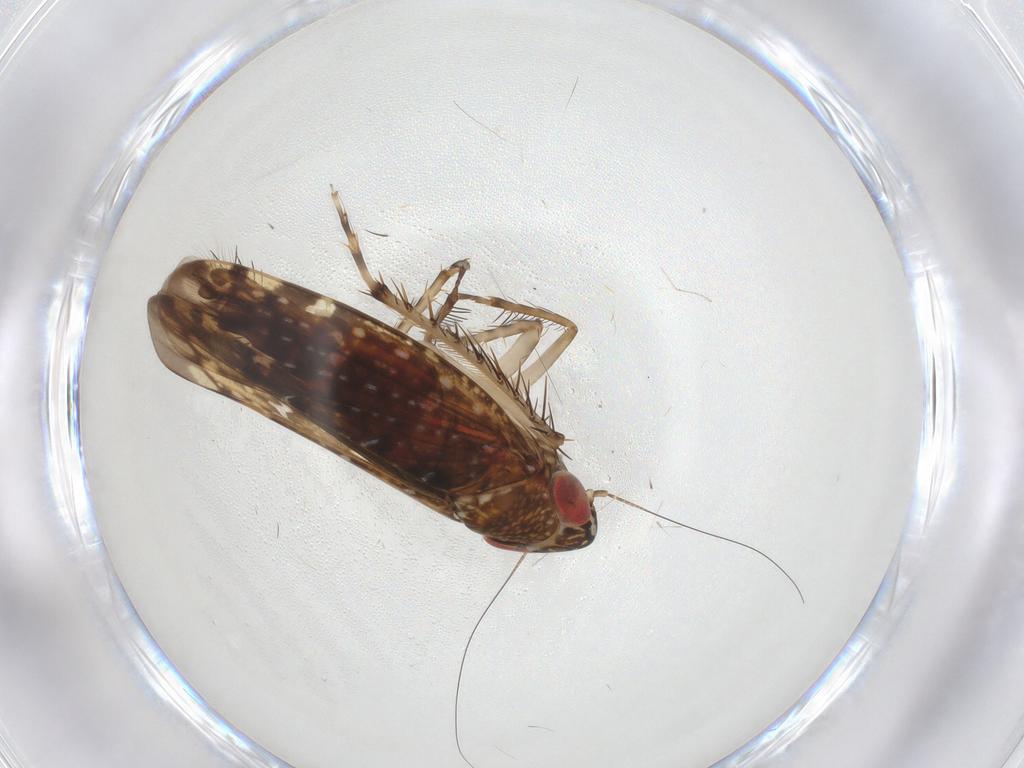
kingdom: Animalia
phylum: Arthropoda
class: Insecta
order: Hemiptera
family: Cicadellidae
